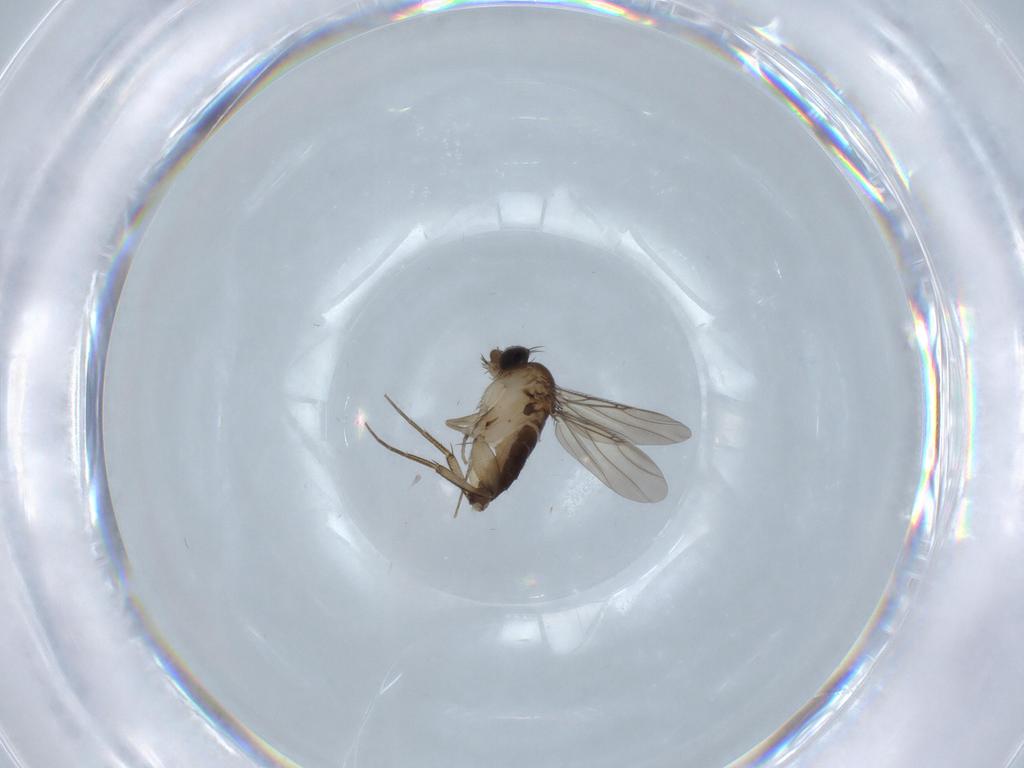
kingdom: Animalia
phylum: Arthropoda
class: Insecta
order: Diptera
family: Phoridae
